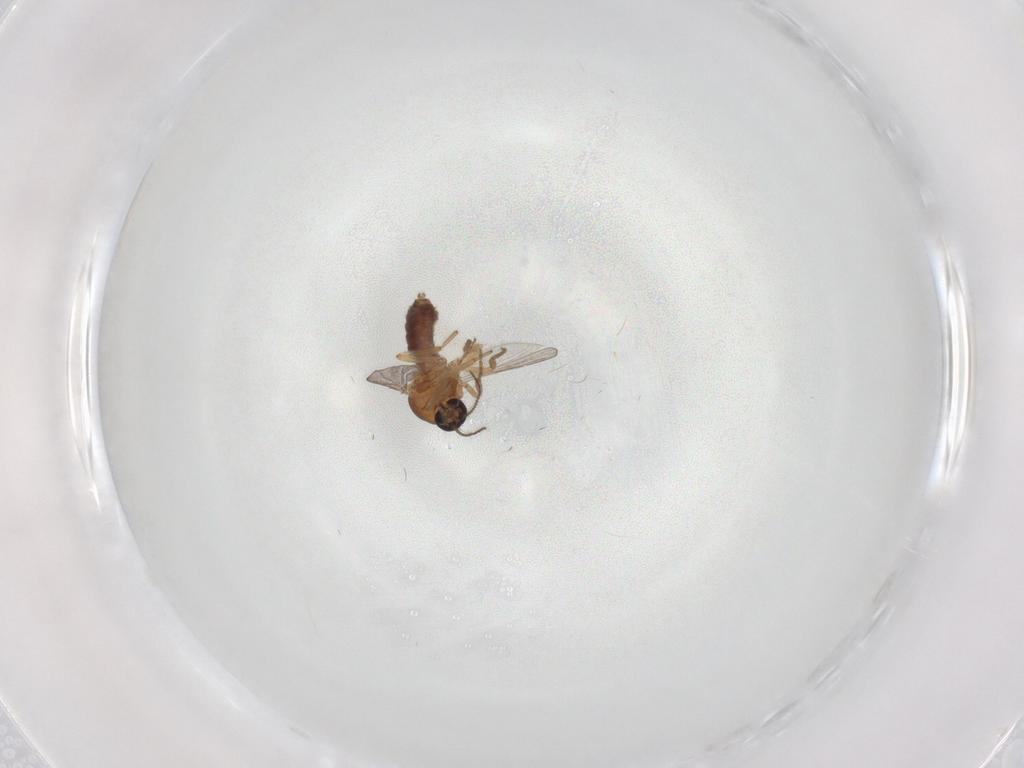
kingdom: Animalia
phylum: Arthropoda
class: Insecta
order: Diptera
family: Ceratopogonidae
